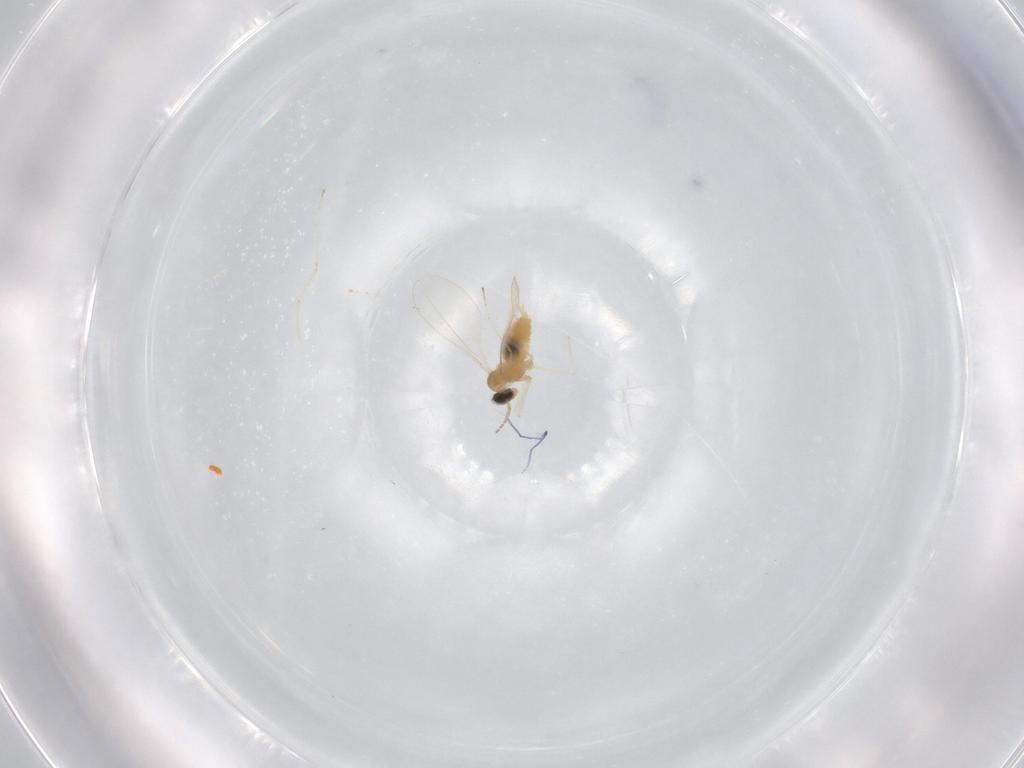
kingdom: Animalia
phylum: Arthropoda
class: Insecta
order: Diptera
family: Cecidomyiidae
